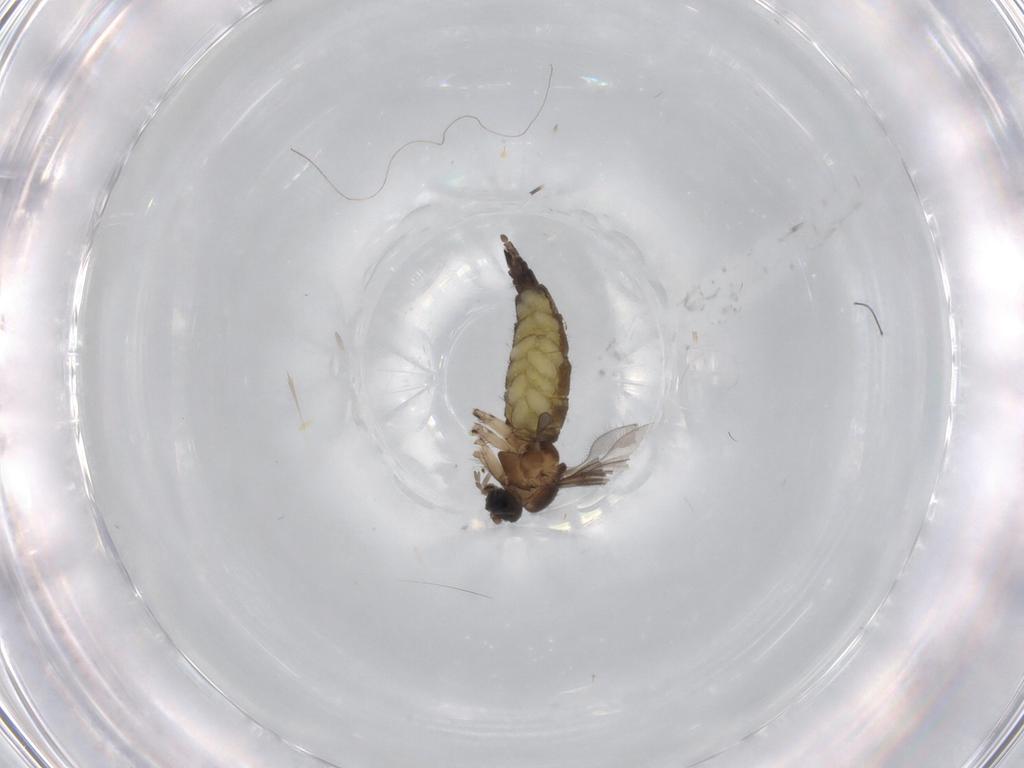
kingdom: Animalia
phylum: Arthropoda
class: Insecta
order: Diptera
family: Sciaridae
